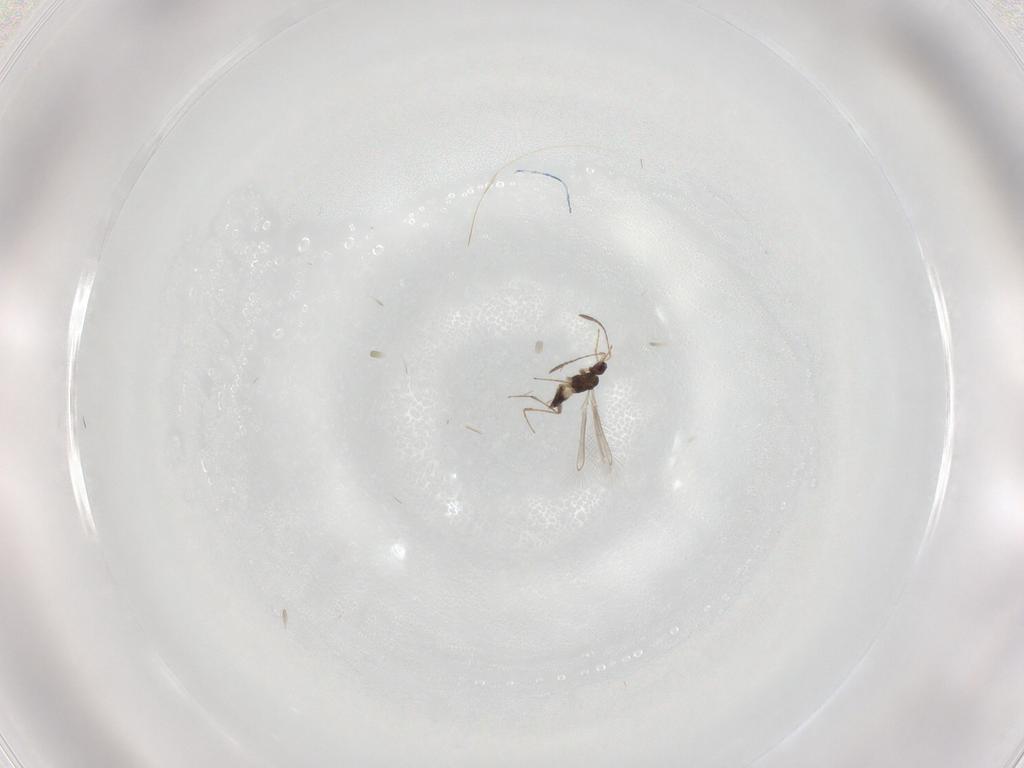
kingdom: Animalia
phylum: Arthropoda
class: Insecta
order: Hymenoptera
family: Mymaridae
